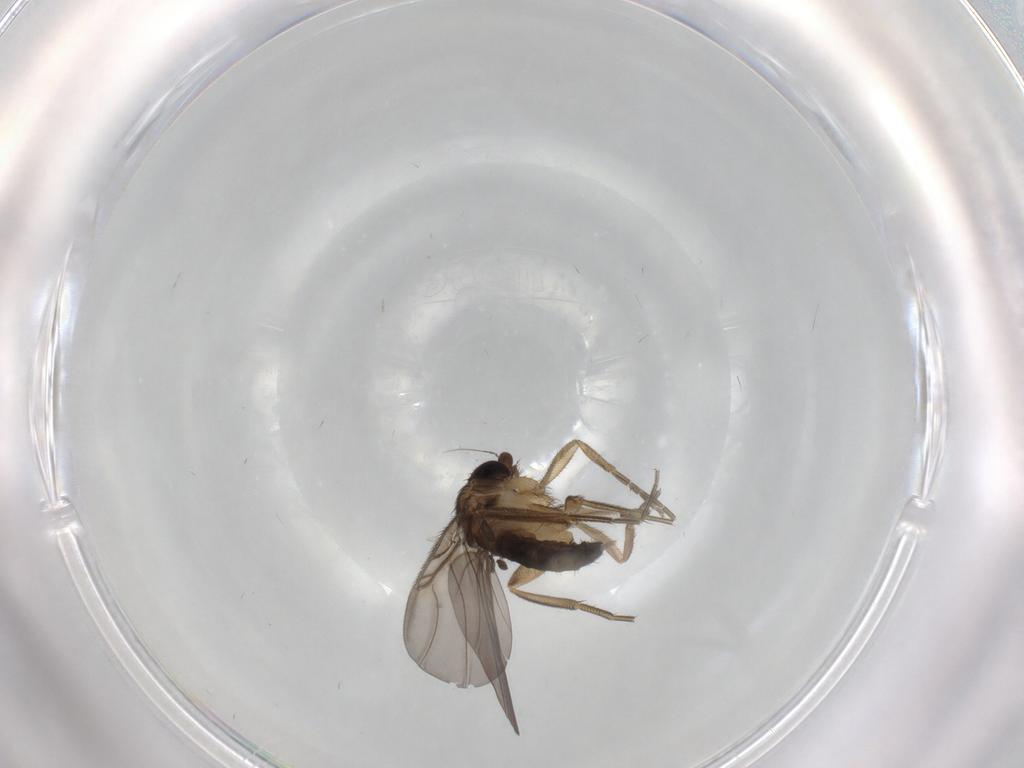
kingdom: Animalia
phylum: Arthropoda
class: Insecta
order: Diptera
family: Phoridae
